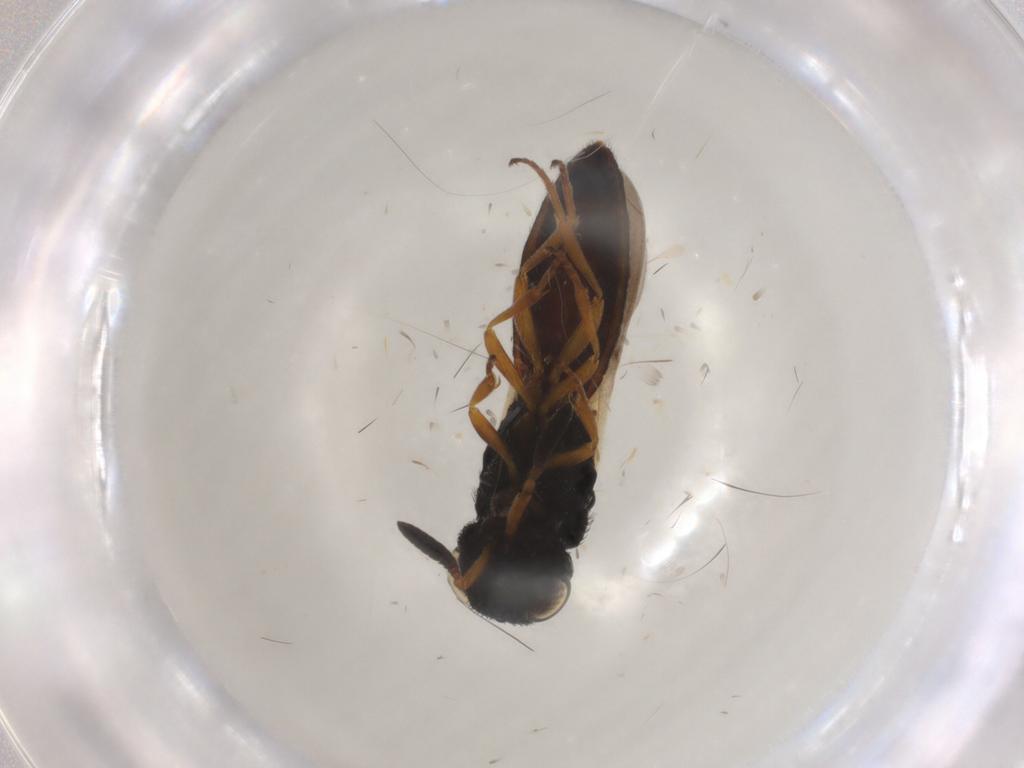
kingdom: Animalia
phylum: Arthropoda
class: Insecta
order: Hymenoptera
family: Scelionidae
